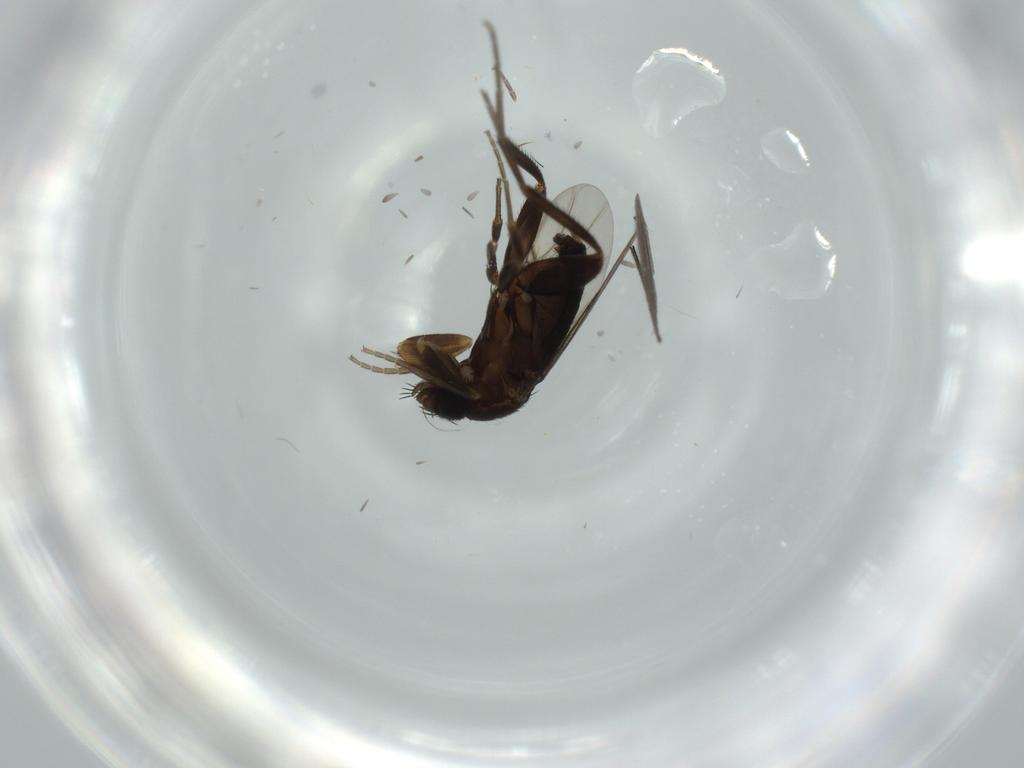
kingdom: Animalia
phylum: Arthropoda
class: Insecta
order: Diptera
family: Phoridae
